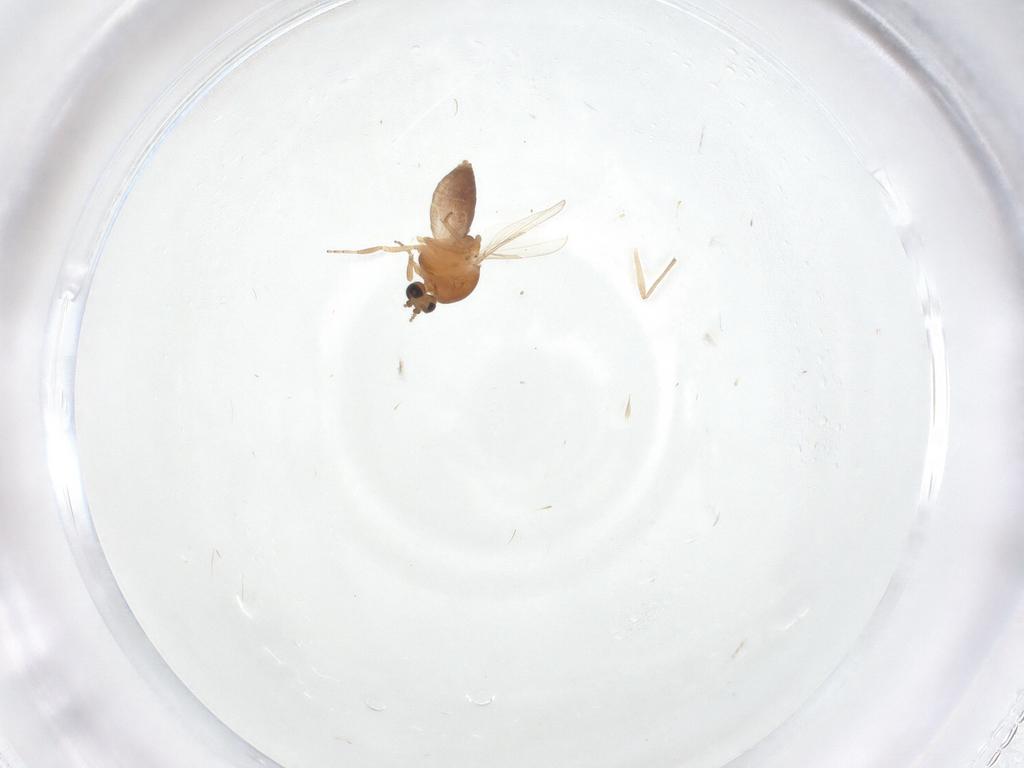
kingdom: Animalia
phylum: Arthropoda
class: Insecta
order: Diptera
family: Ceratopogonidae
